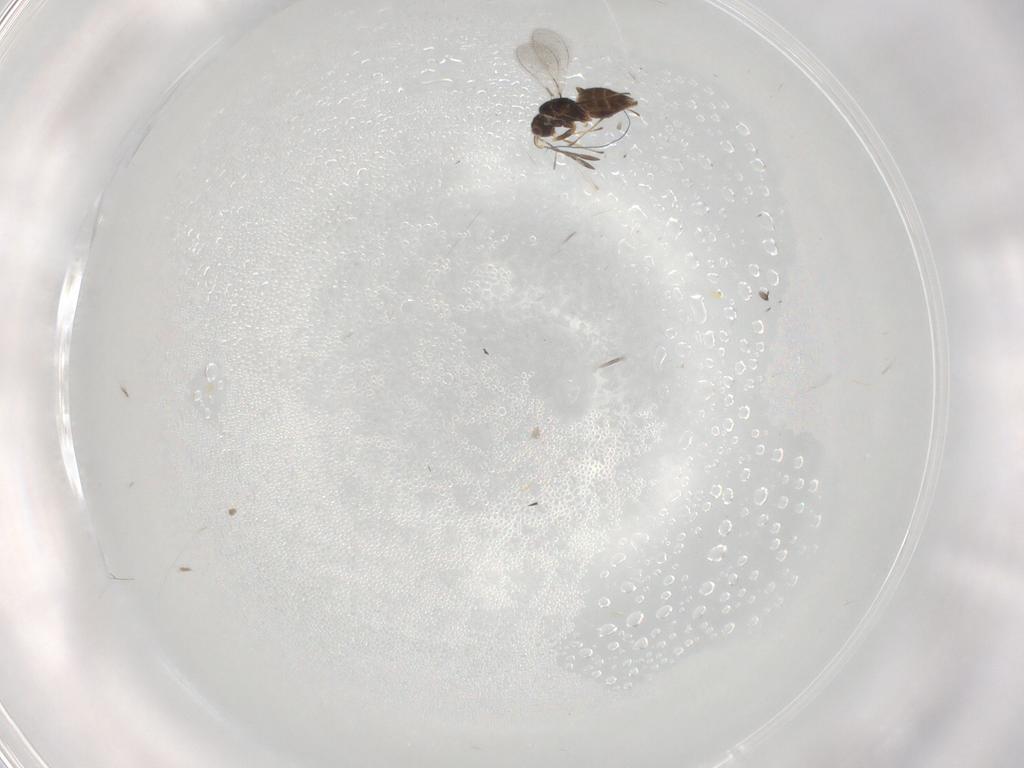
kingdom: Animalia
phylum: Arthropoda
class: Insecta
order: Hymenoptera
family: Mymaridae
